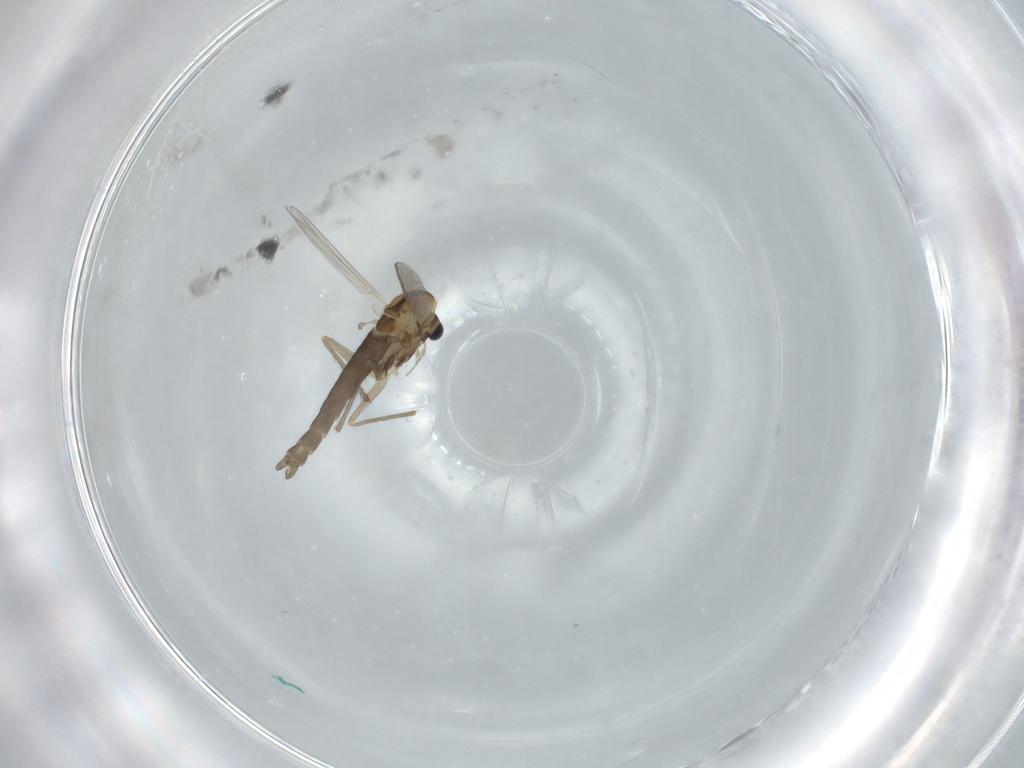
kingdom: Animalia
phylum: Arthropoda
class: Insecta
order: Diptera
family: Chironomidae
